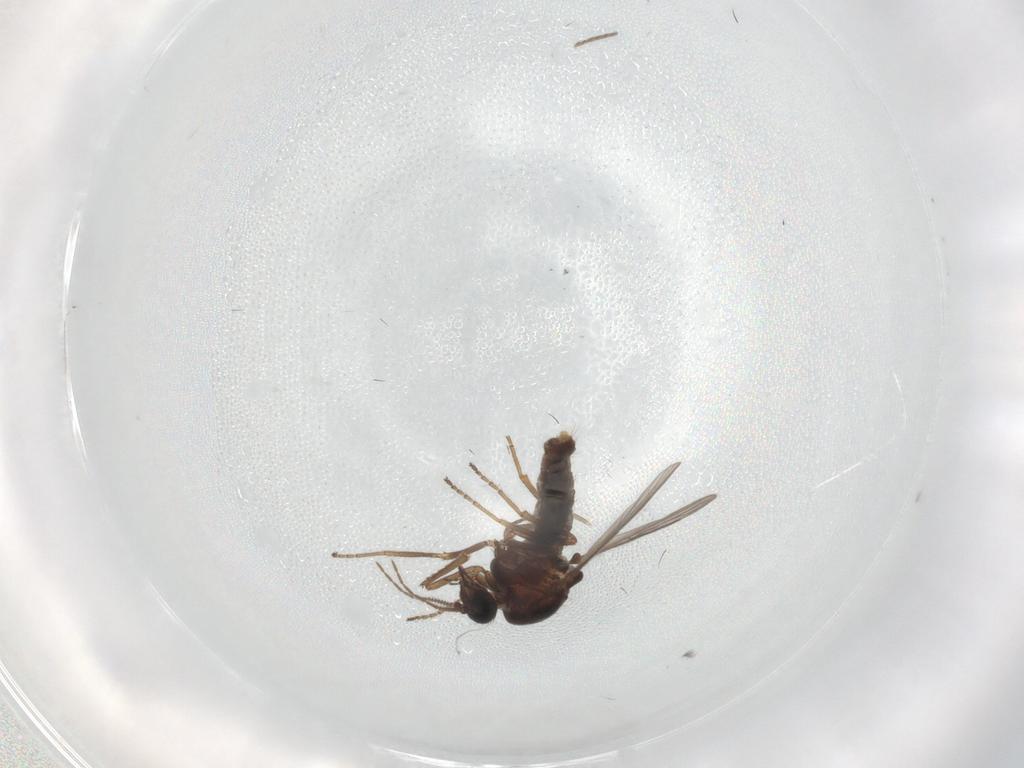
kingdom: Animalia
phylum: Arthropoda
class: Insecta
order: Diptera
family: Ceratopogonidae
